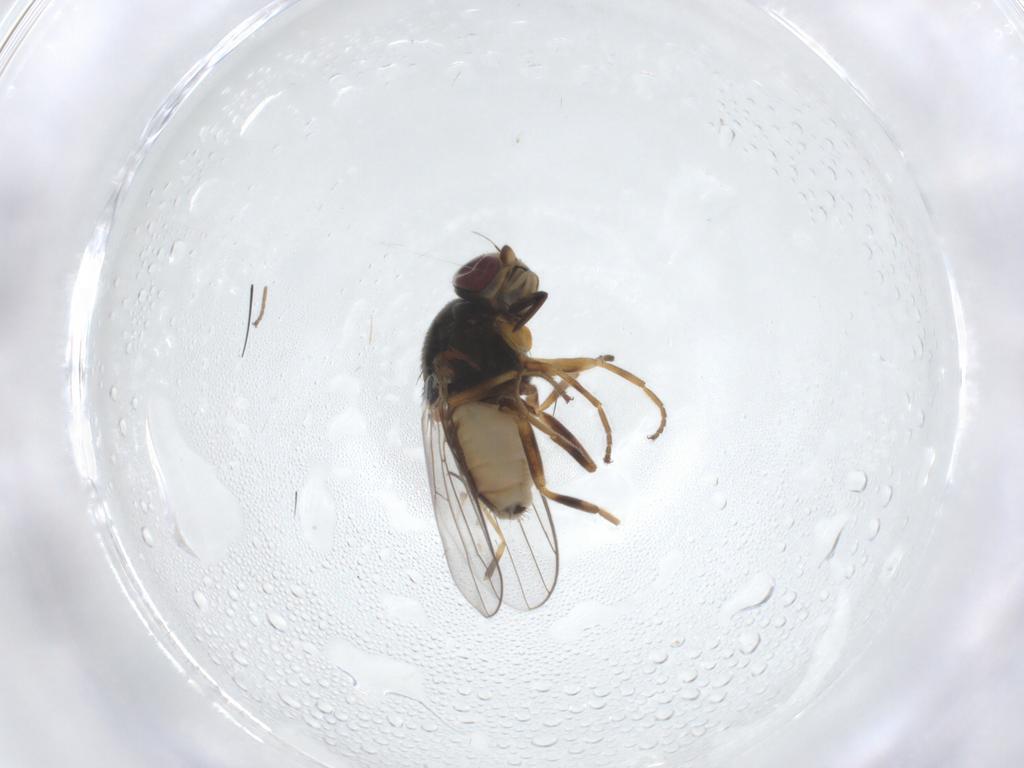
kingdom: Animalia
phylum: Arthropoda
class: Insecta
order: Diptera
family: Chloropidae
